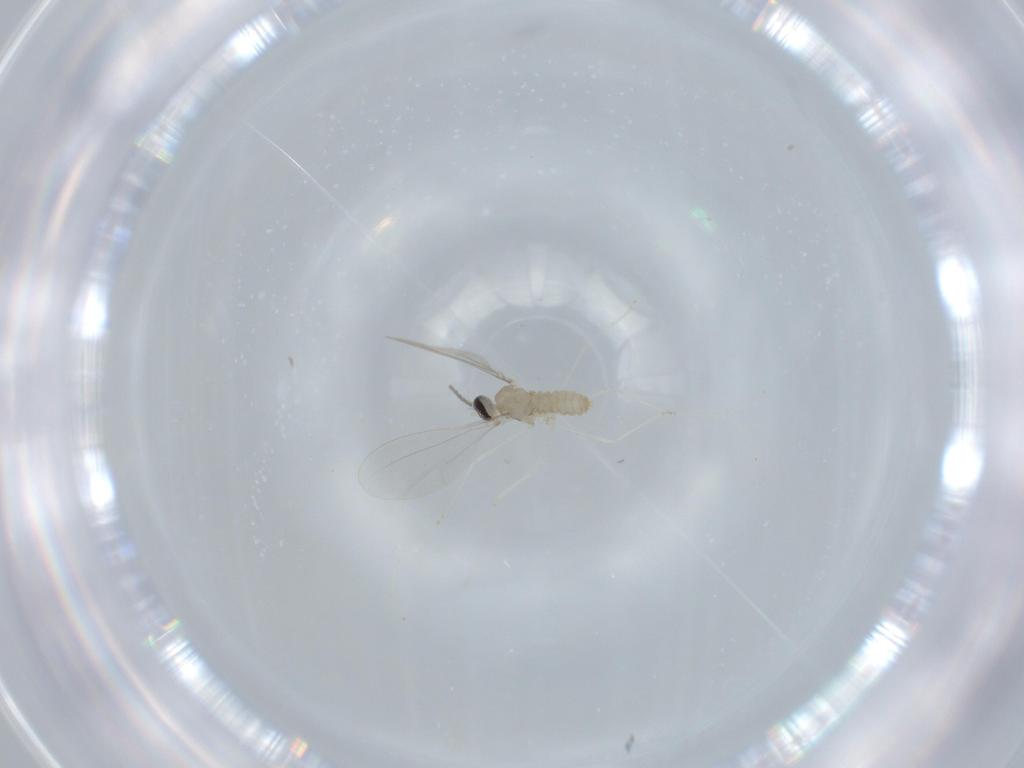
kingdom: Animalia
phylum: Arthropoda
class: Insecta
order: Diptera
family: Cecidomyiidae
